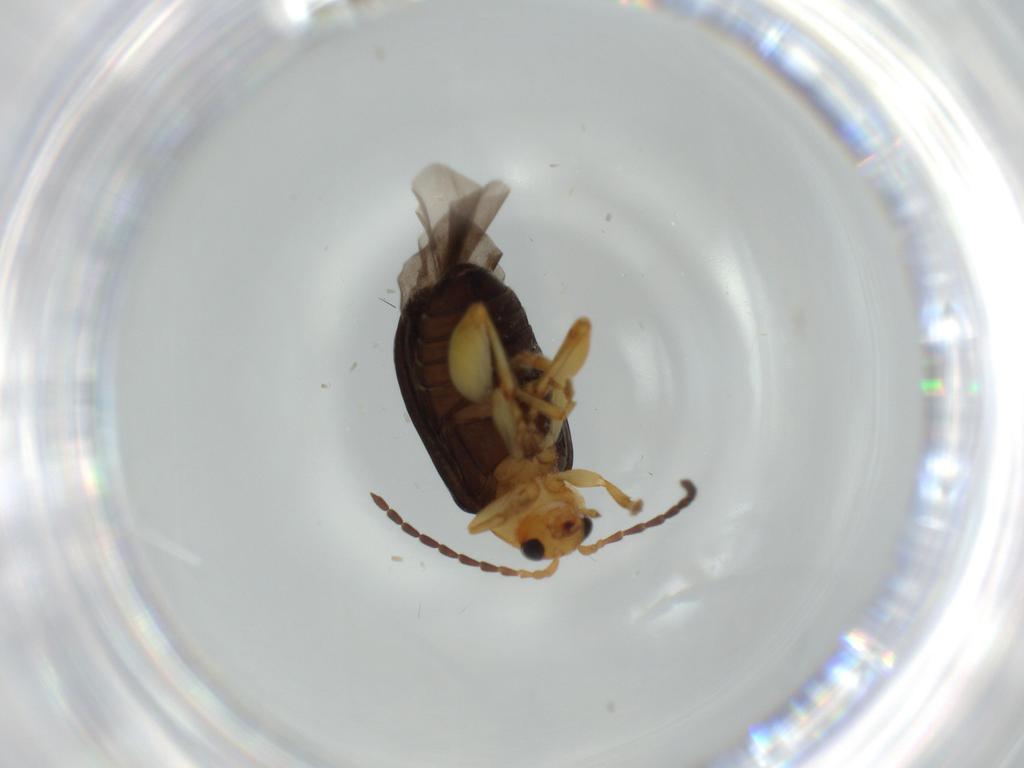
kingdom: Animalia
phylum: Arthropoda
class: Insecta
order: Coleoptera
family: Chrysomelidae
